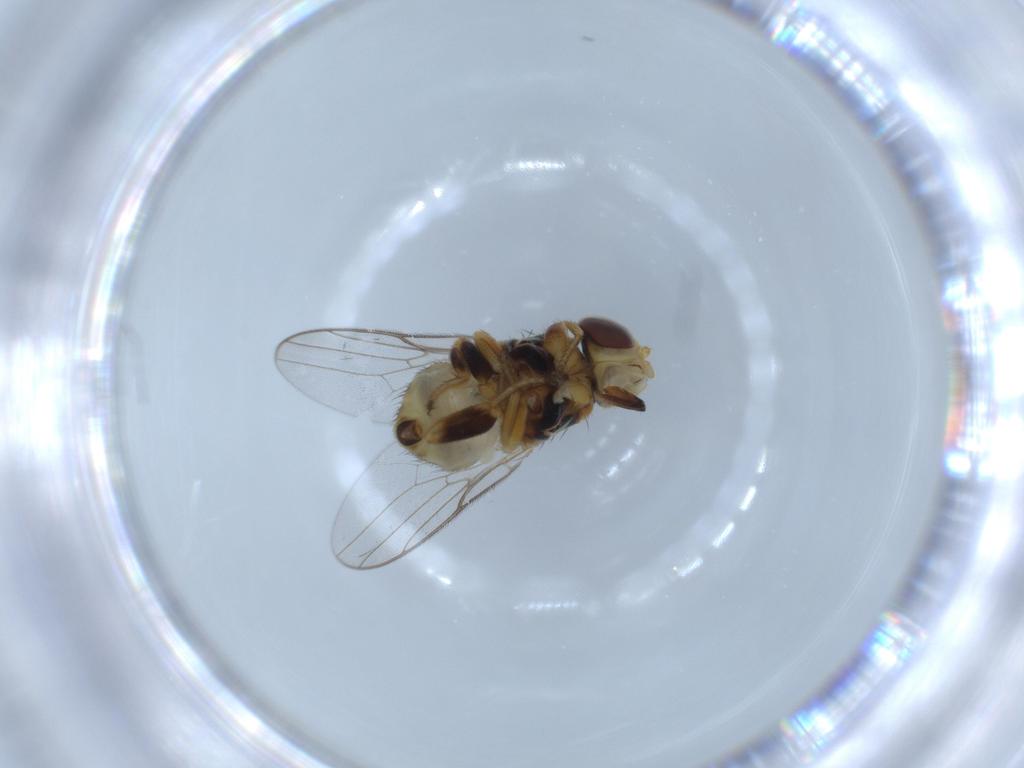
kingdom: Animalia
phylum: Arthropoda
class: Insecta
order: Diptera
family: Chloropidae
